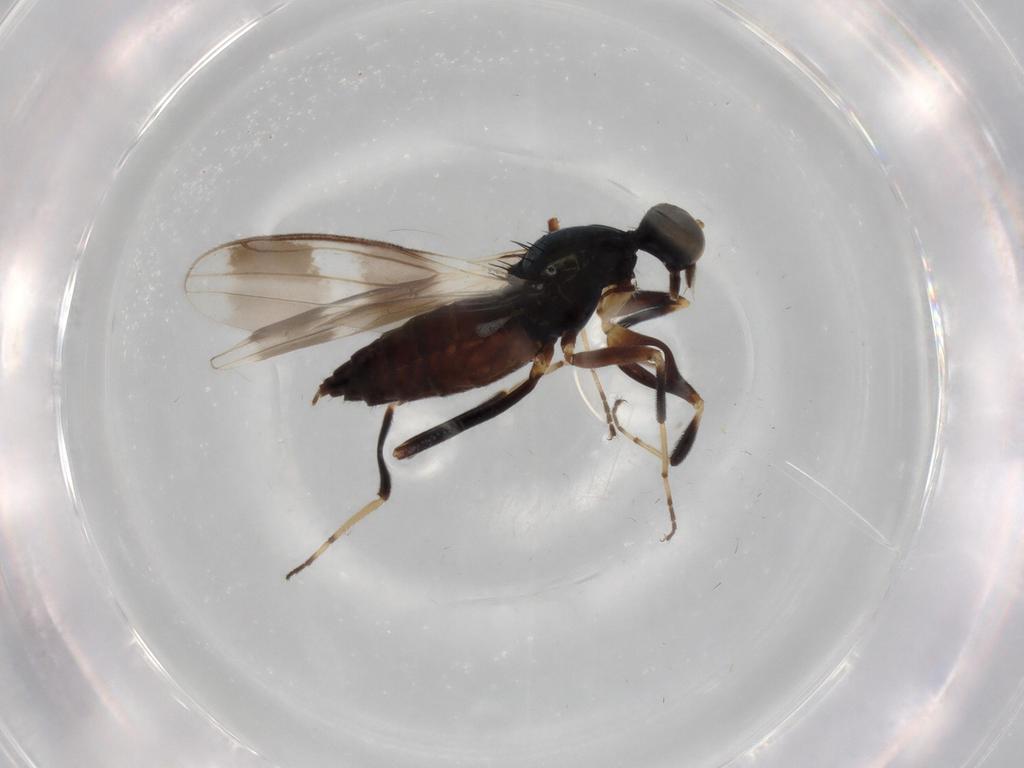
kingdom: Animalia
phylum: Arthropoda
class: Insecta
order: Diptera
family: Hybotidae
